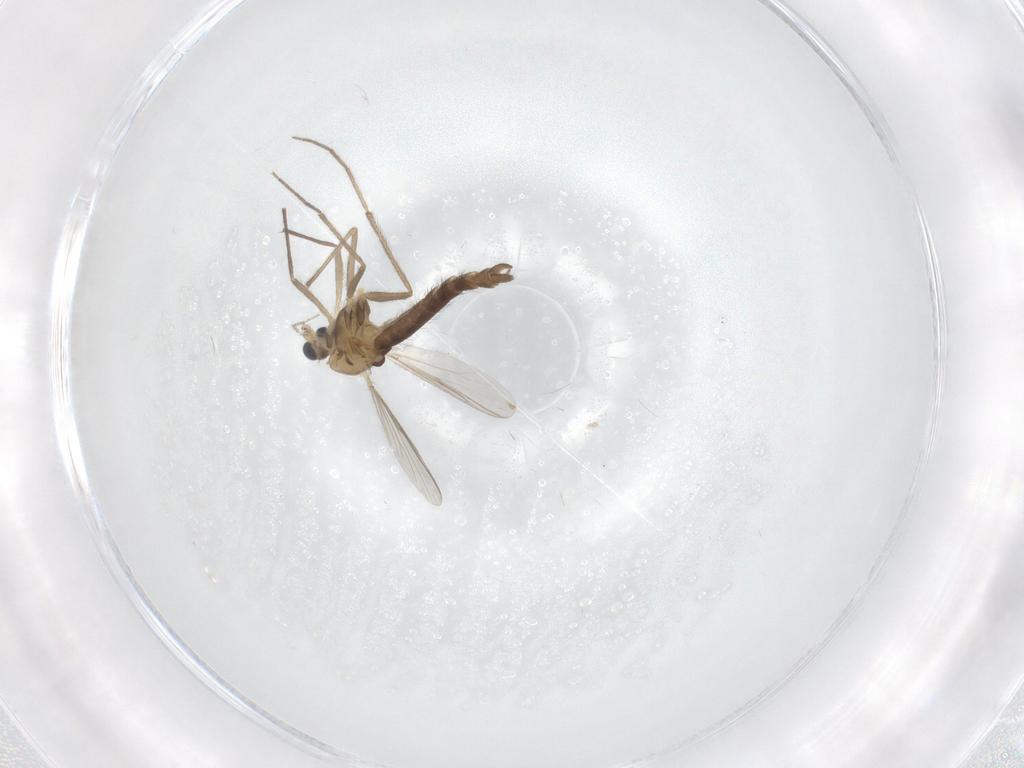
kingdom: Animalia
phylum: Arthropoda
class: Insecta
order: Diptera
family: Chironomidae
